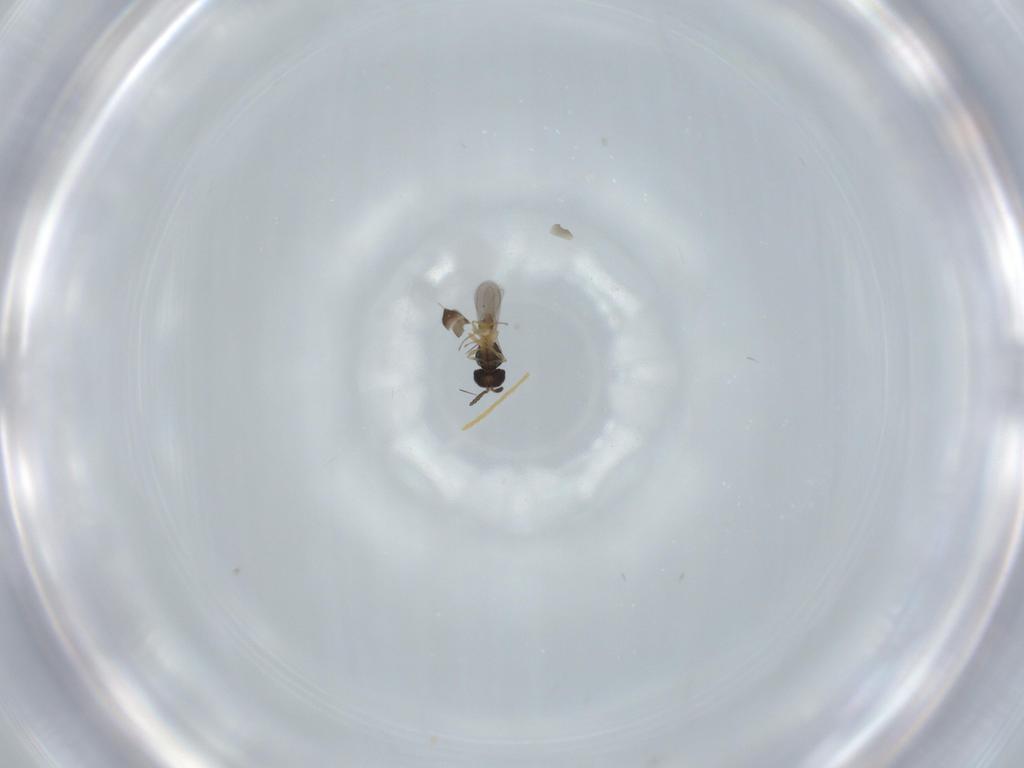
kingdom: Animalia
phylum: Arthropoda
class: Insecta
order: Hymenoptera
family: Scelionidae
